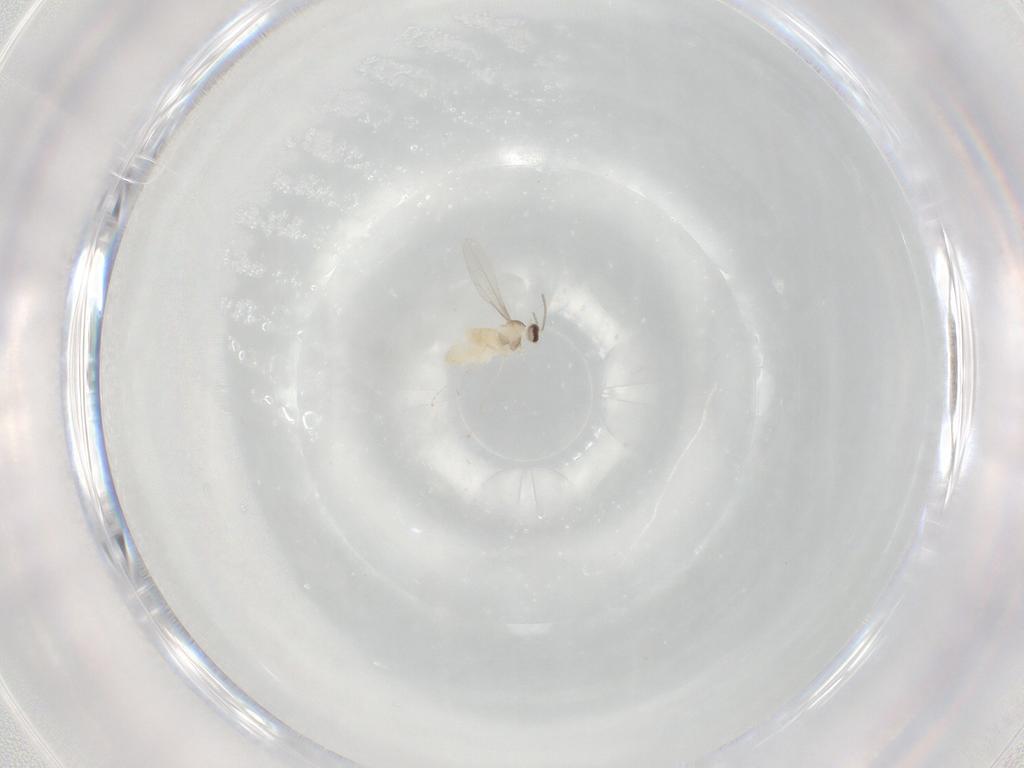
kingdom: Animalia
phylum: Arthropoda
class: Insecta
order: Diptera
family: Cecidomyiidae
